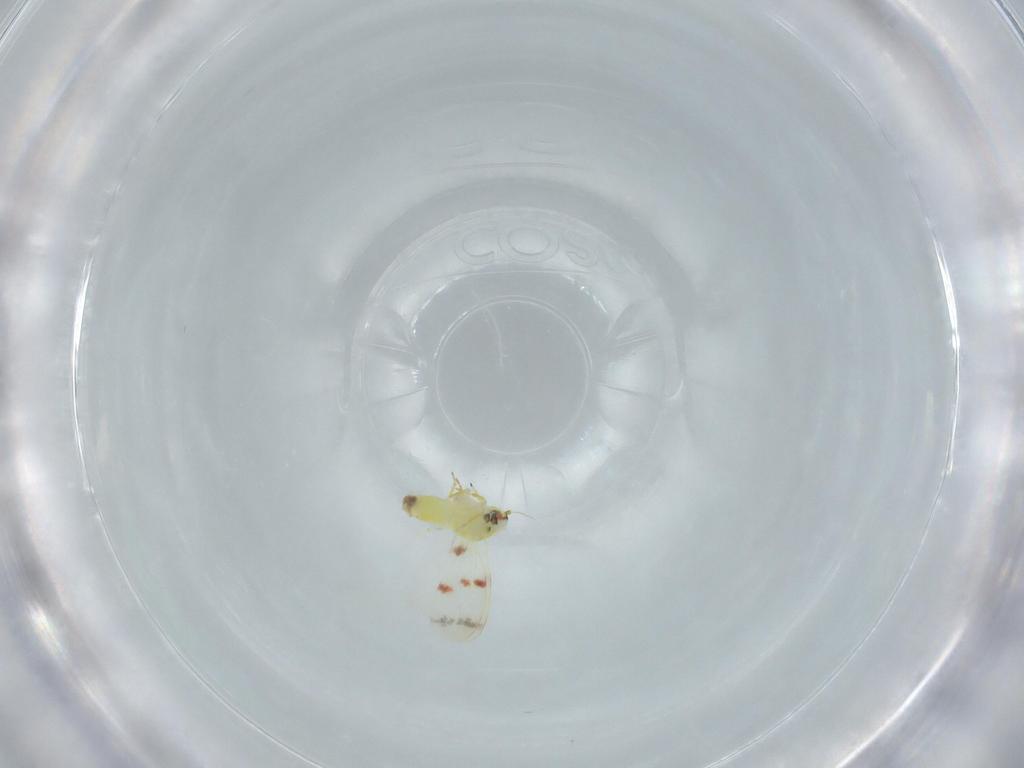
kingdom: Animalia
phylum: Arthropoda
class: Insecta
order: Hemiptera
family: Aleyrodidae
